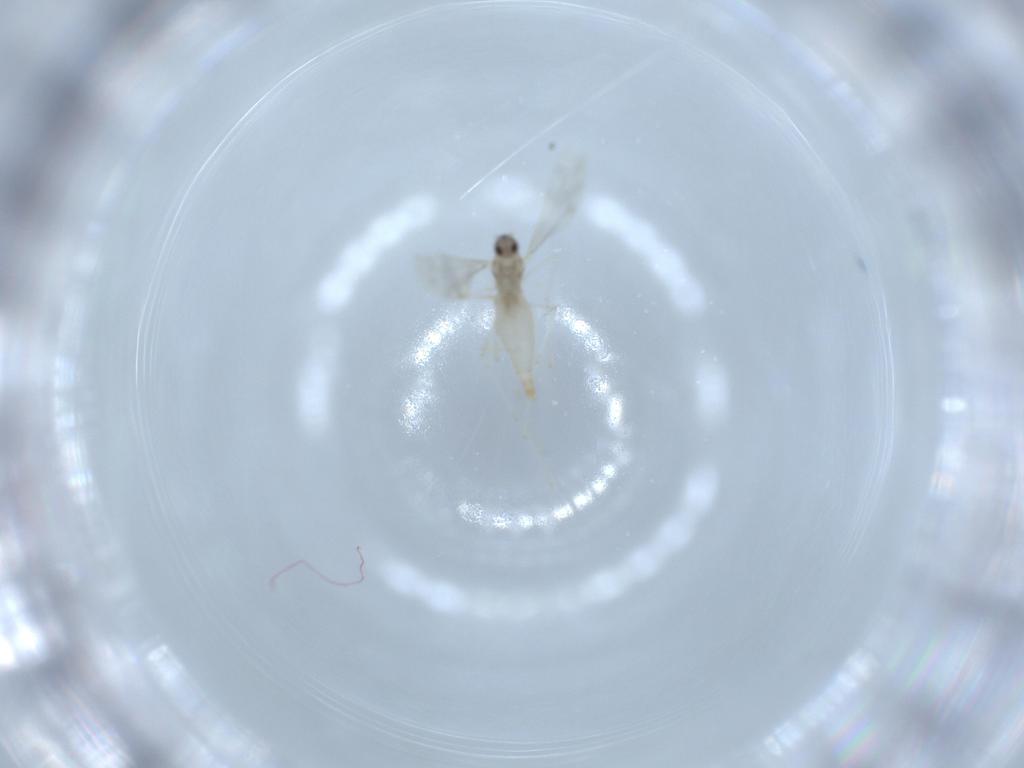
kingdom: Animalia
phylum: Arthropoda
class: Insecta
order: Diptera
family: Cecidomyiidae
